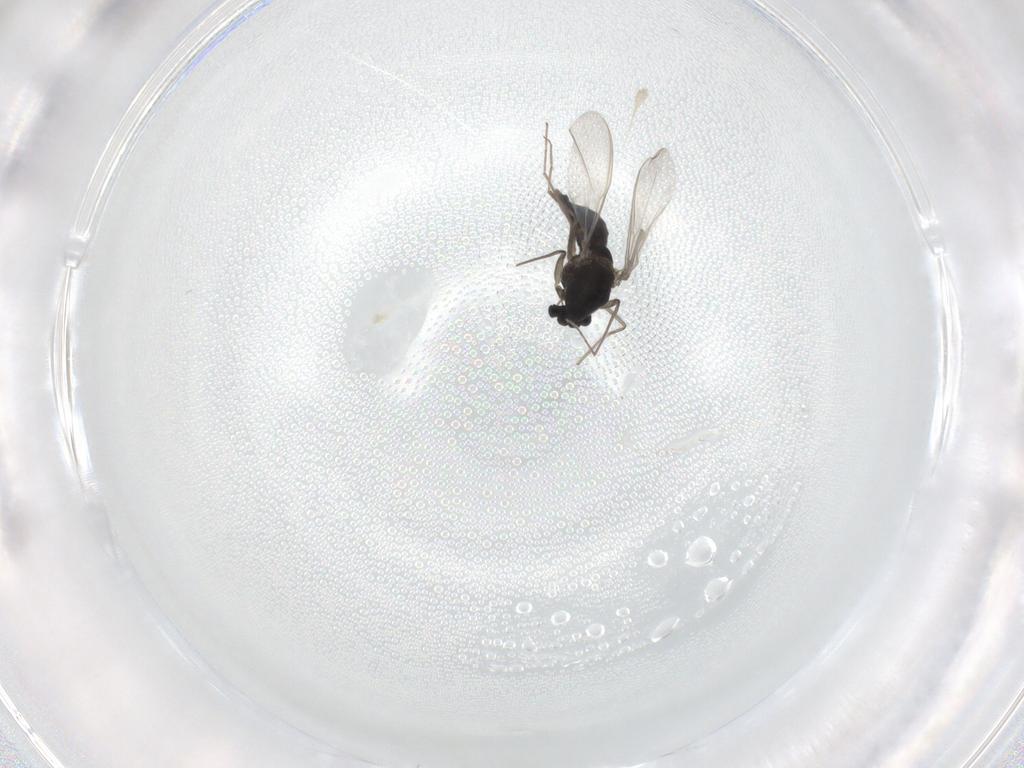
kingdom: Animalia
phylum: Arthropoda
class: Insecta
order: Diptera
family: Chironomidae
